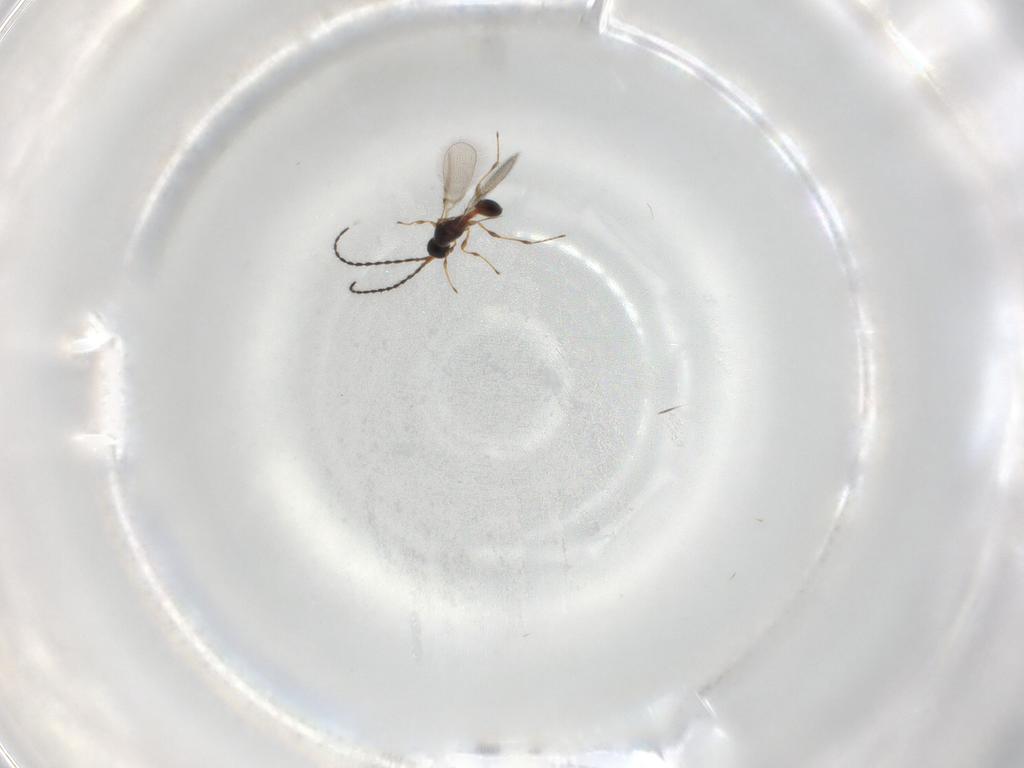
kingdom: Animalia
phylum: Arthropoda
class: Insecta
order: Hymenoptera
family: Diapriidae
